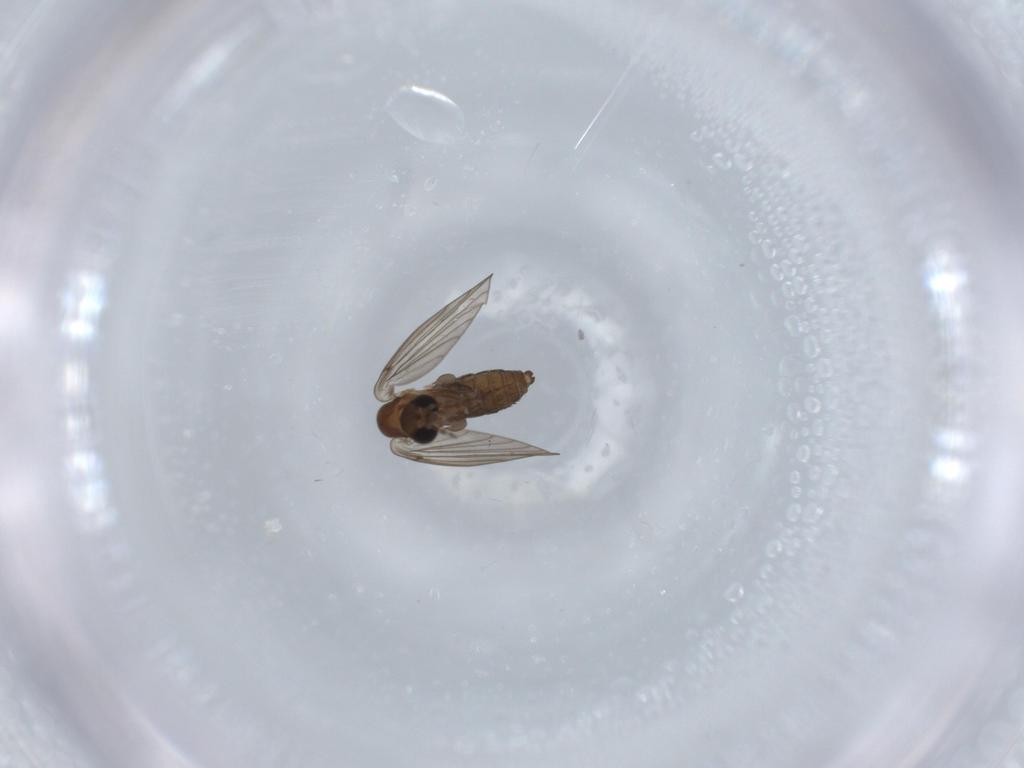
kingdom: Animalia
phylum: Arthropoda
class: Insecta
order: Diptera
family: Psychodidae
